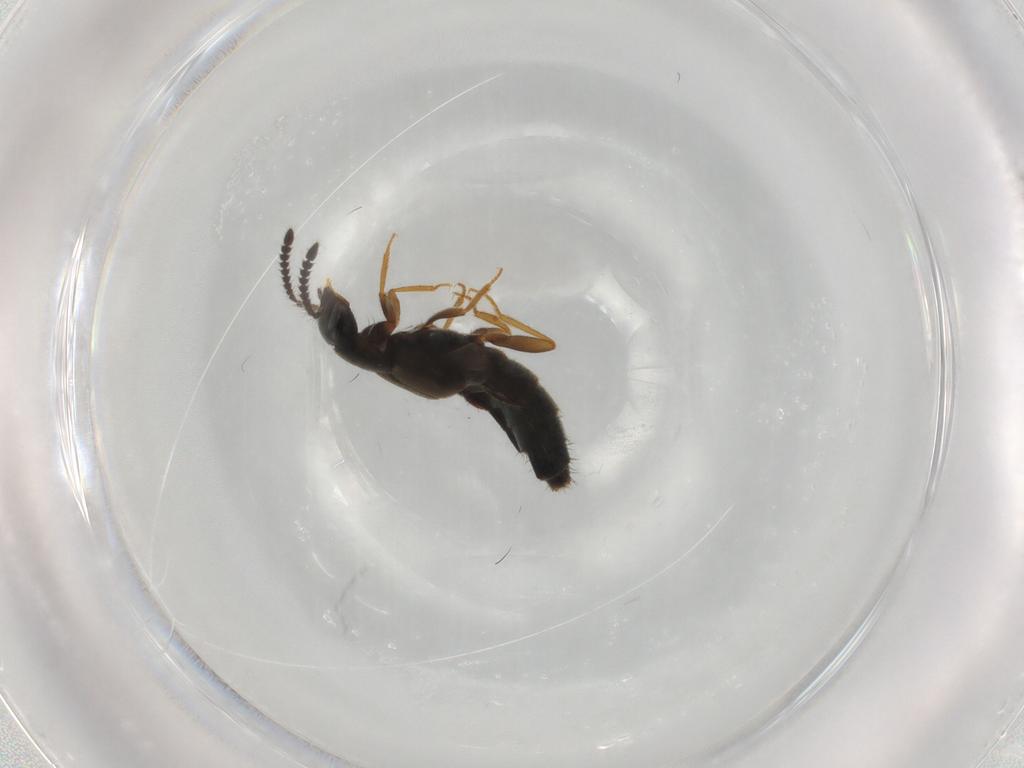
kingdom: Animalia
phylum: Arthropoda
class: Insecta
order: Coleoptera
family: Staphylinidae
